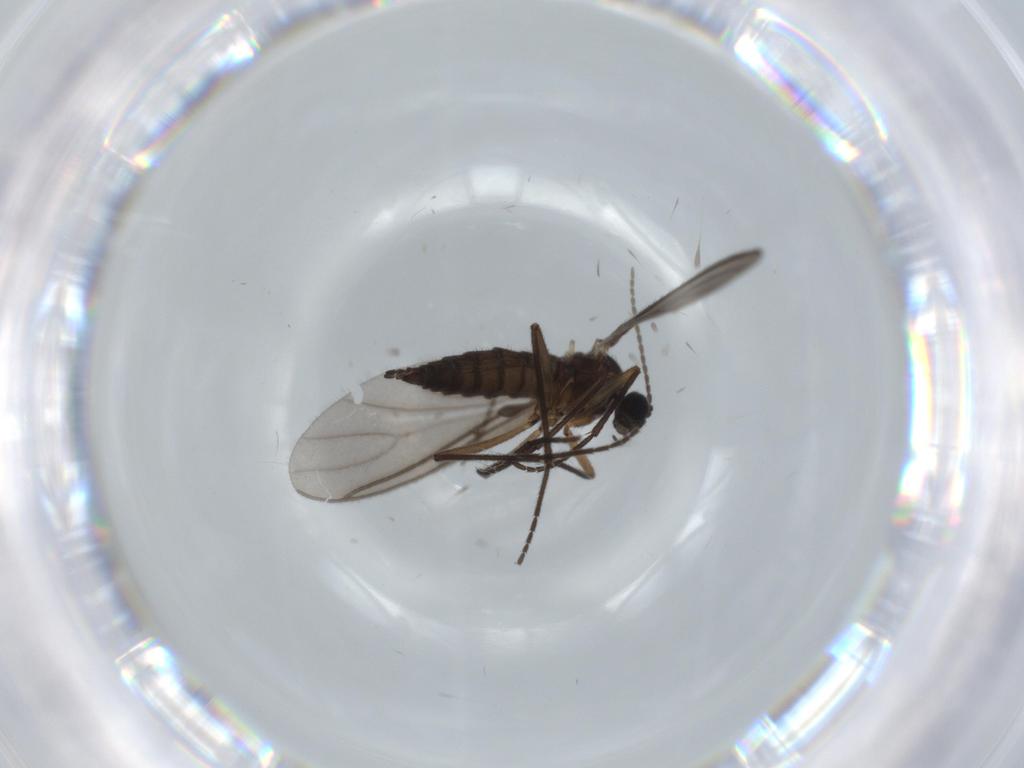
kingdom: Animalia
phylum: Arthropoda
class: Insecta
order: Diptera
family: Sciaridae
